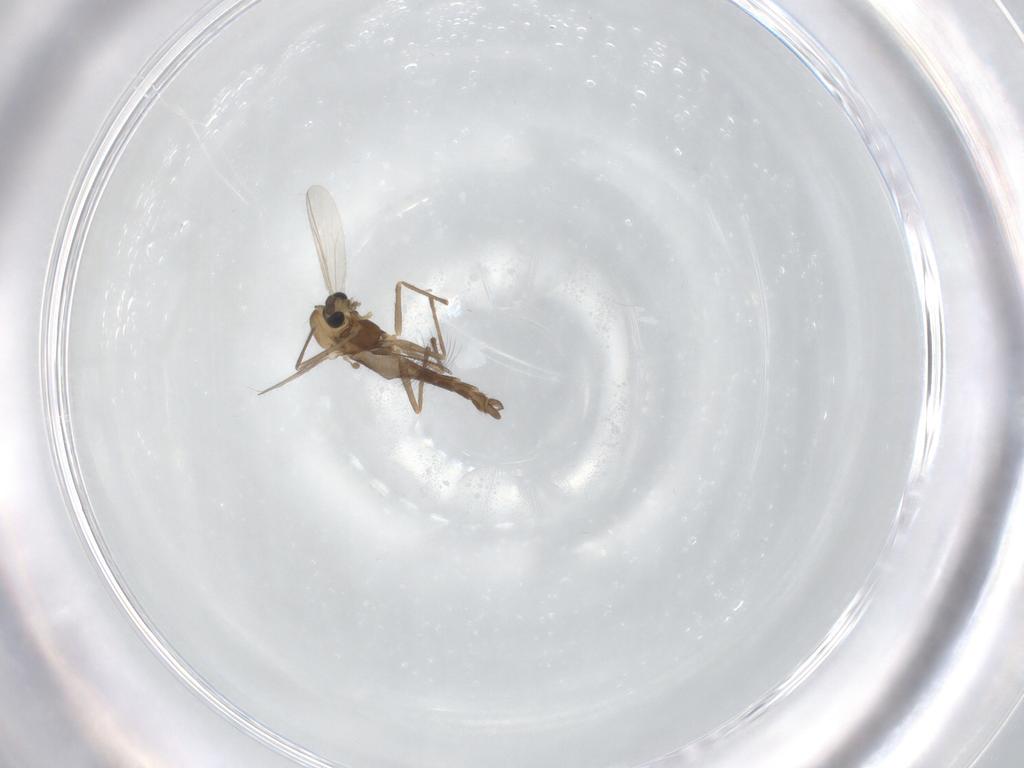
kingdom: Animalia
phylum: Arthropoda
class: Insecta
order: Diptera
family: Chironomidae
